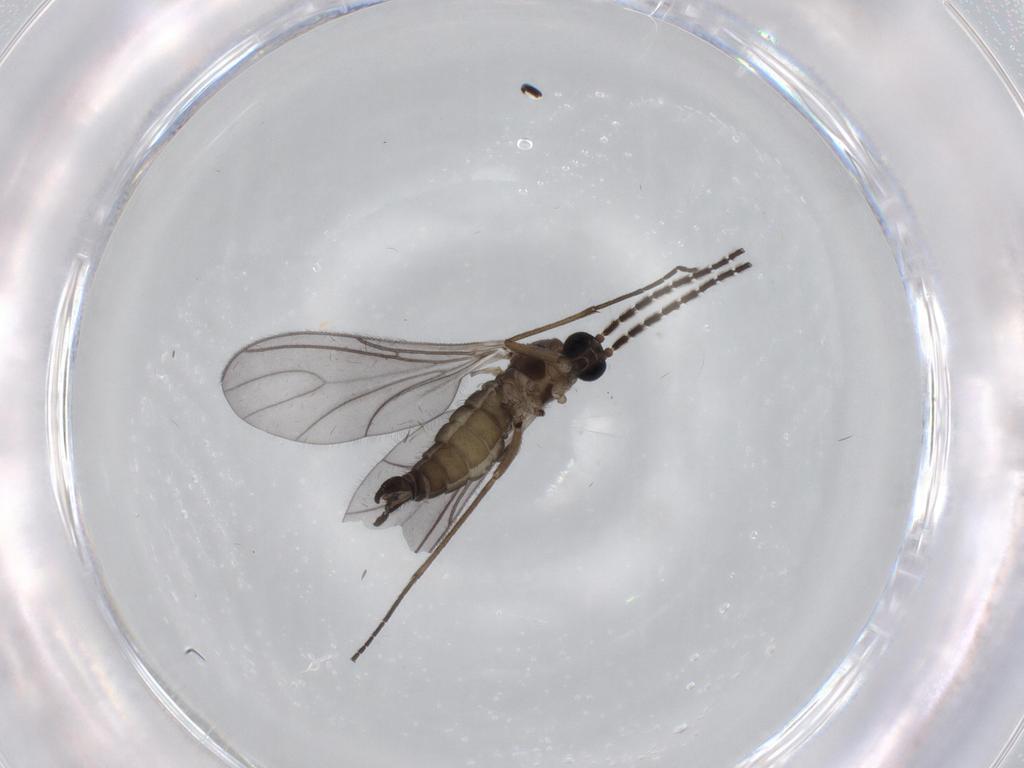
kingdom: Animalia
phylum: Arthropoda
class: Insecta
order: Diptera
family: Sciaridae
